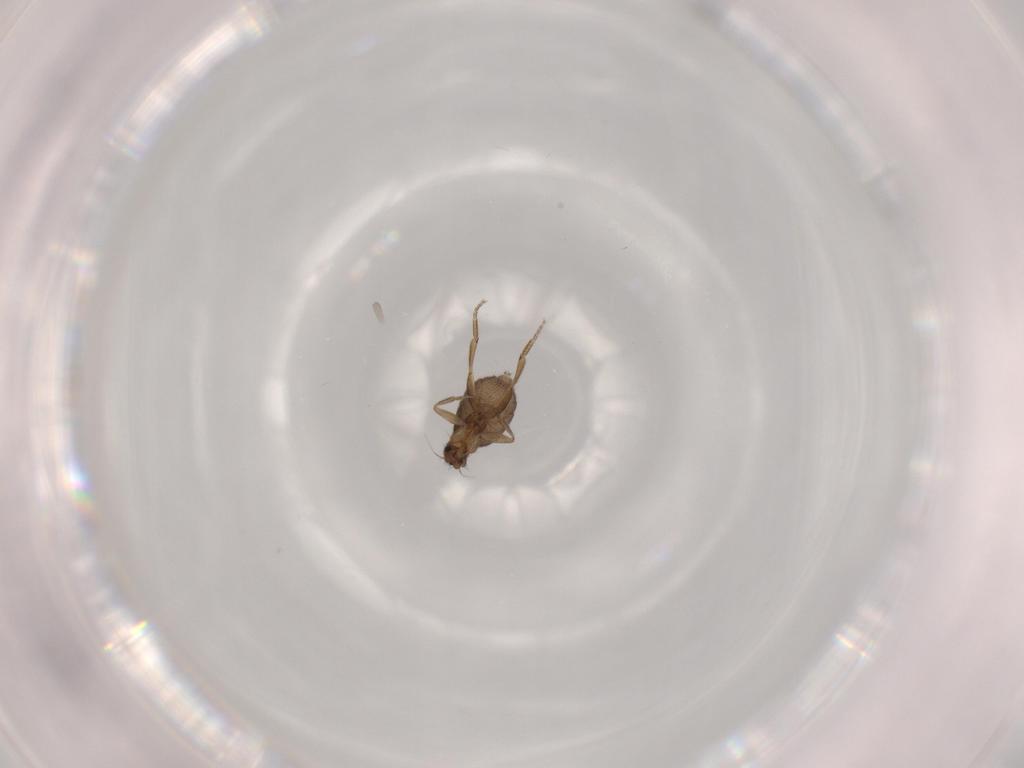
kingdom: Animalia
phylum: Arthropoda
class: Insecta
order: Diptera
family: Phoridae
